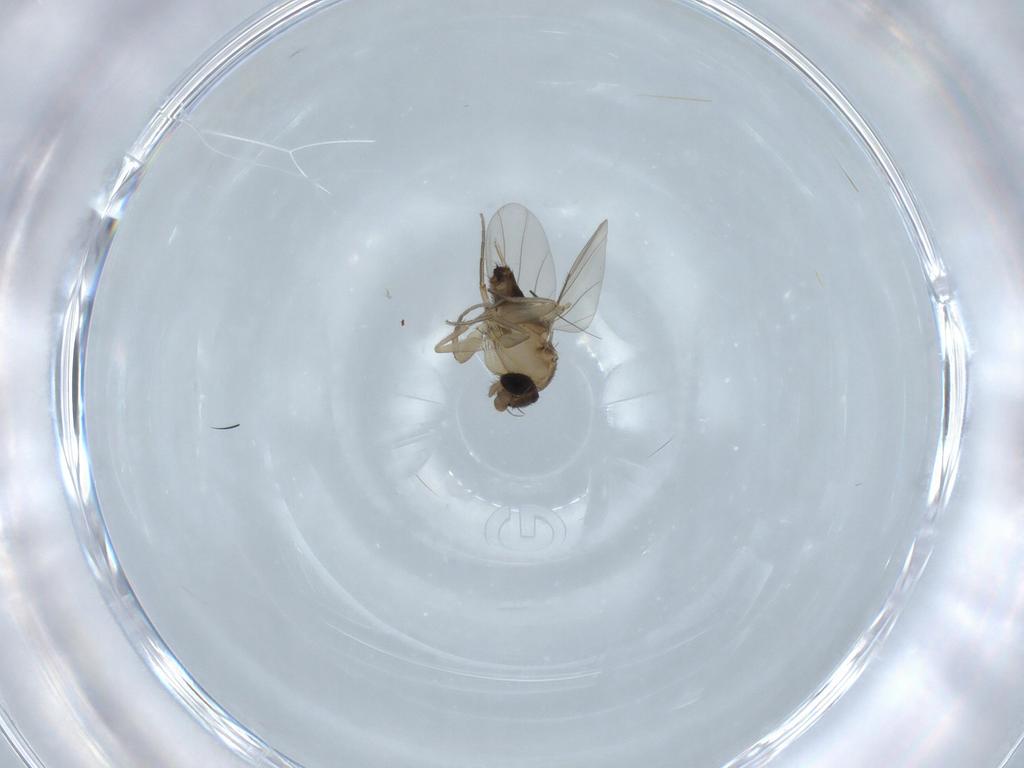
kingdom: Animalia
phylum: Arthropoda
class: Insecta
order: Diptera
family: Phoridae
